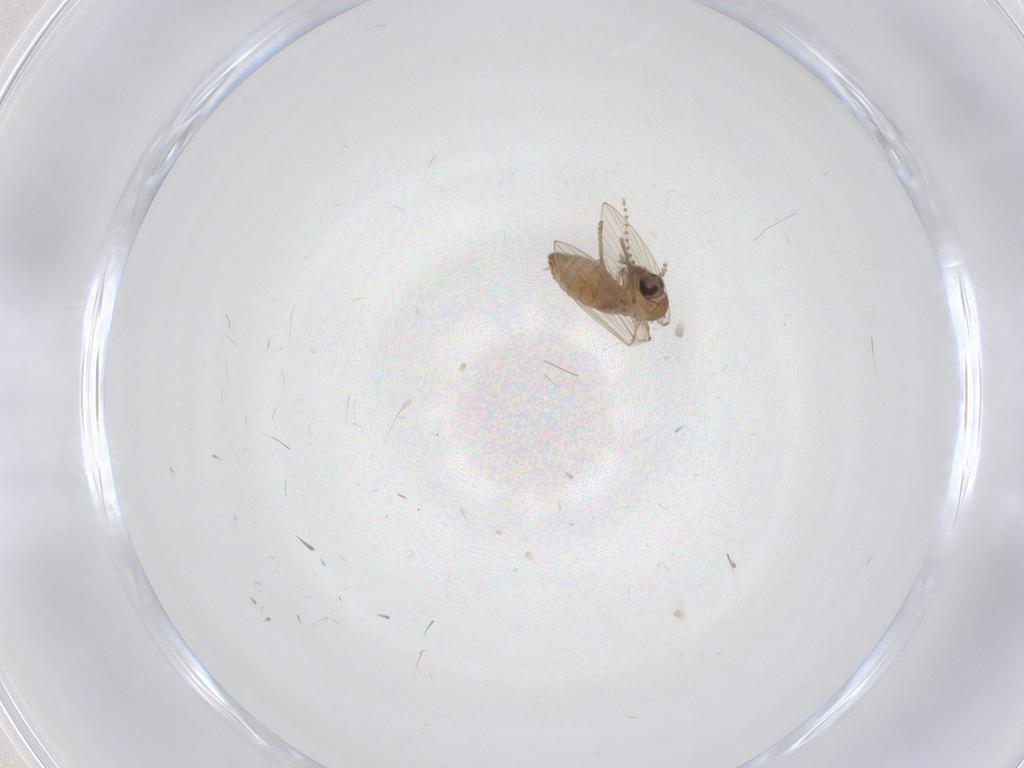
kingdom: Animalia
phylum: Arthropoda
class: Insecta
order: Diptera
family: Psychodidae
